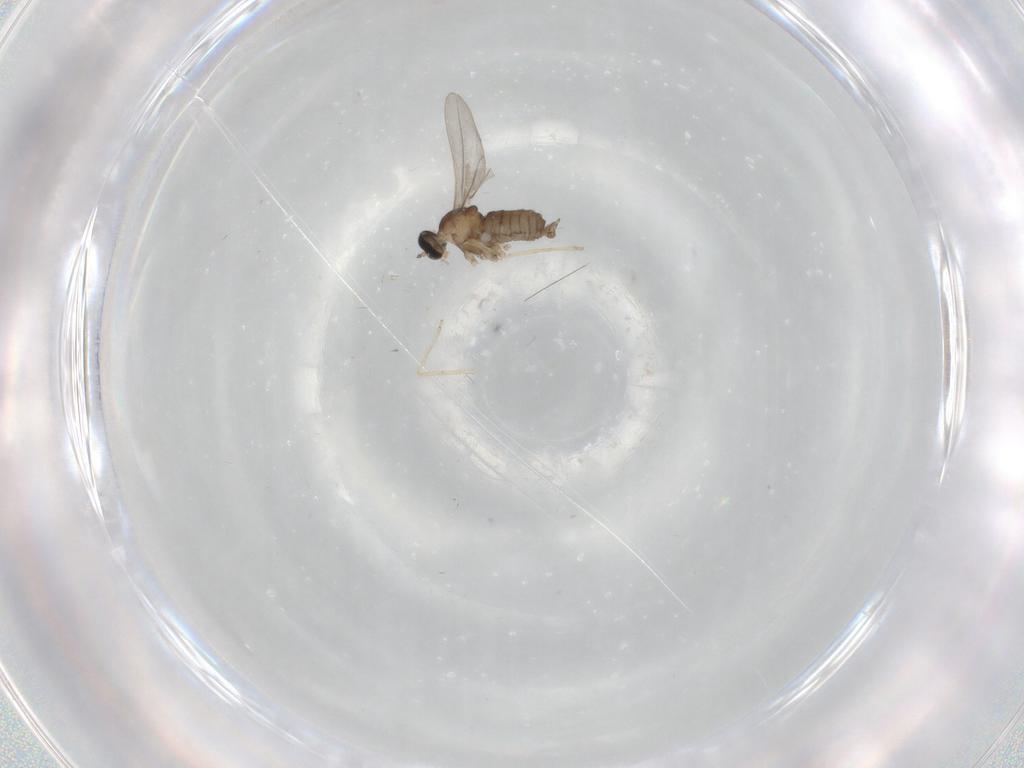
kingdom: Animalia
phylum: Arthropoda
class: Insecta
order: Diptera
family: Cecidomyiidae
